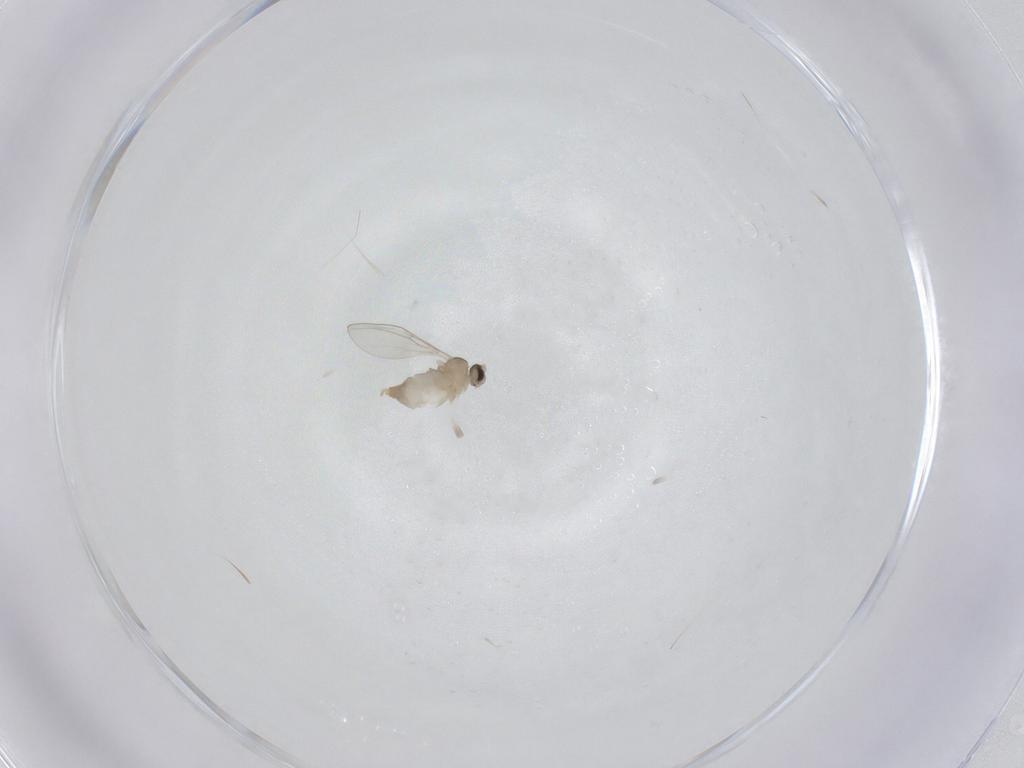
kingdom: Animalia
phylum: Arthropoda
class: Insecta
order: Diptera
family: Cecidomyiidae
